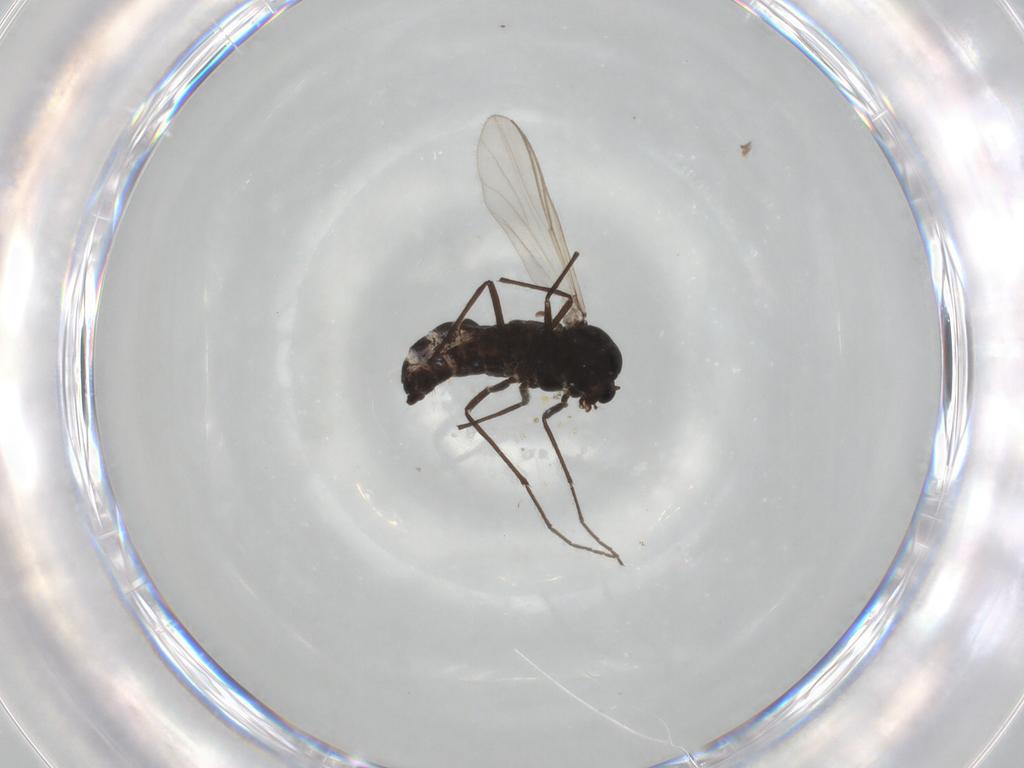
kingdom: Animalia
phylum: Arthropoda
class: Insecta
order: Diptera
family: Chironomidae
